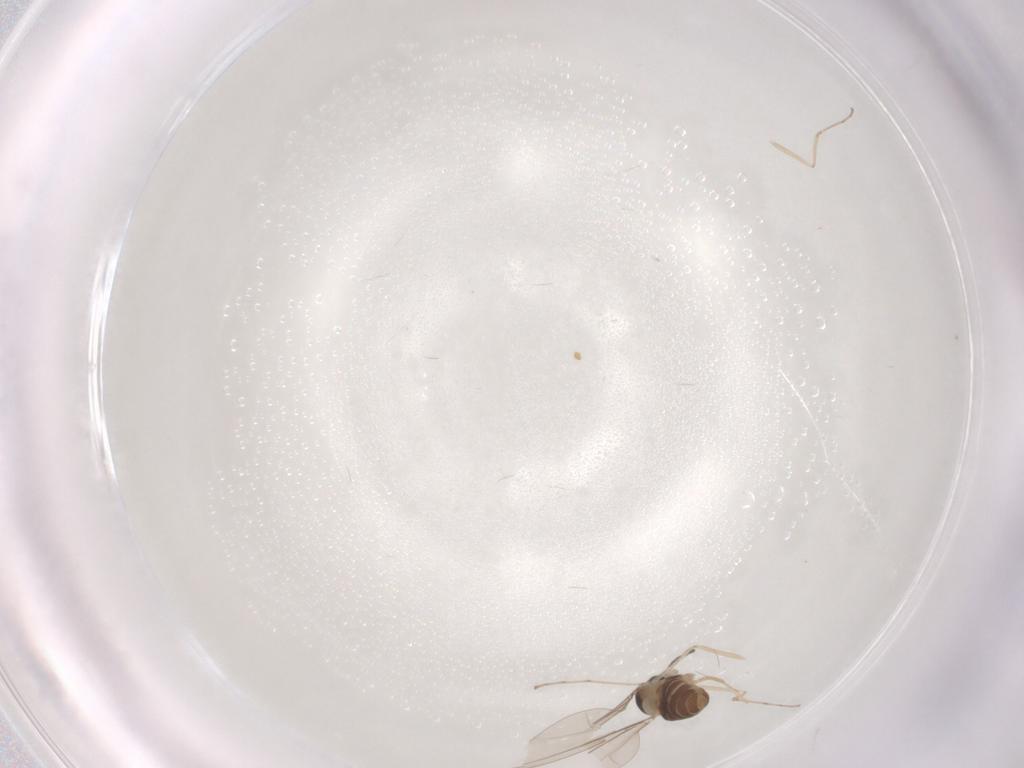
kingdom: Animalia
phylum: Arthropoda
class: Insecta
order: Diptera
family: Cecidomyiidae
